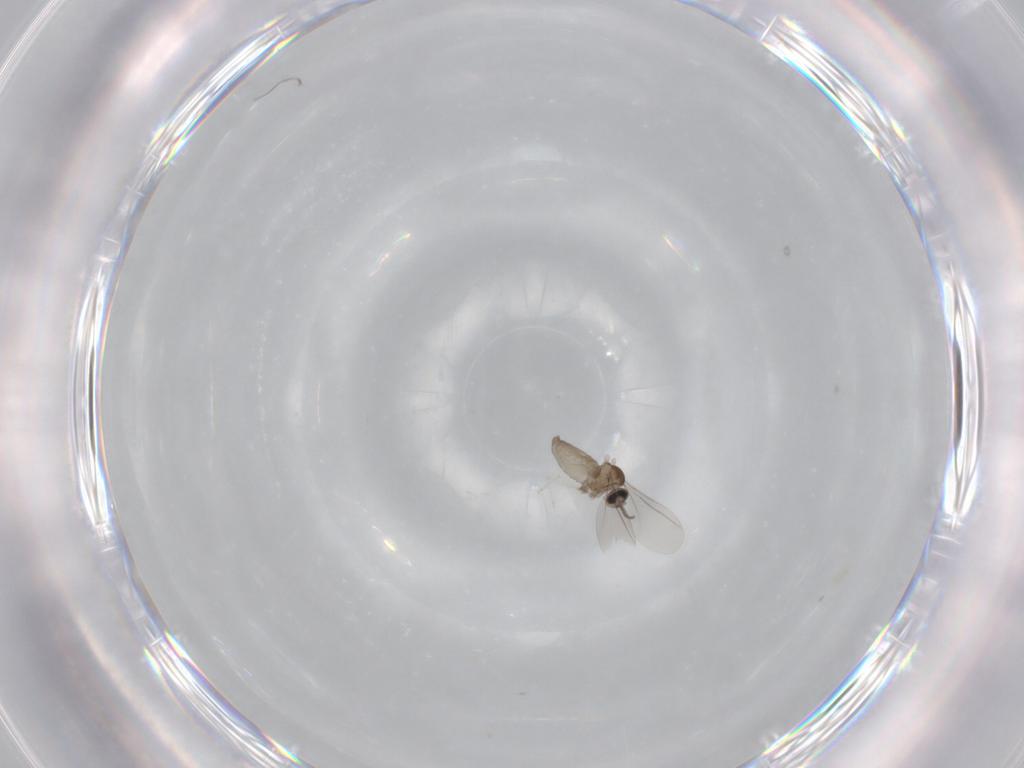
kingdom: Animalia
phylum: Arthropoda
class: Insecta
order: Diptera
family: Cecidomyiidae
